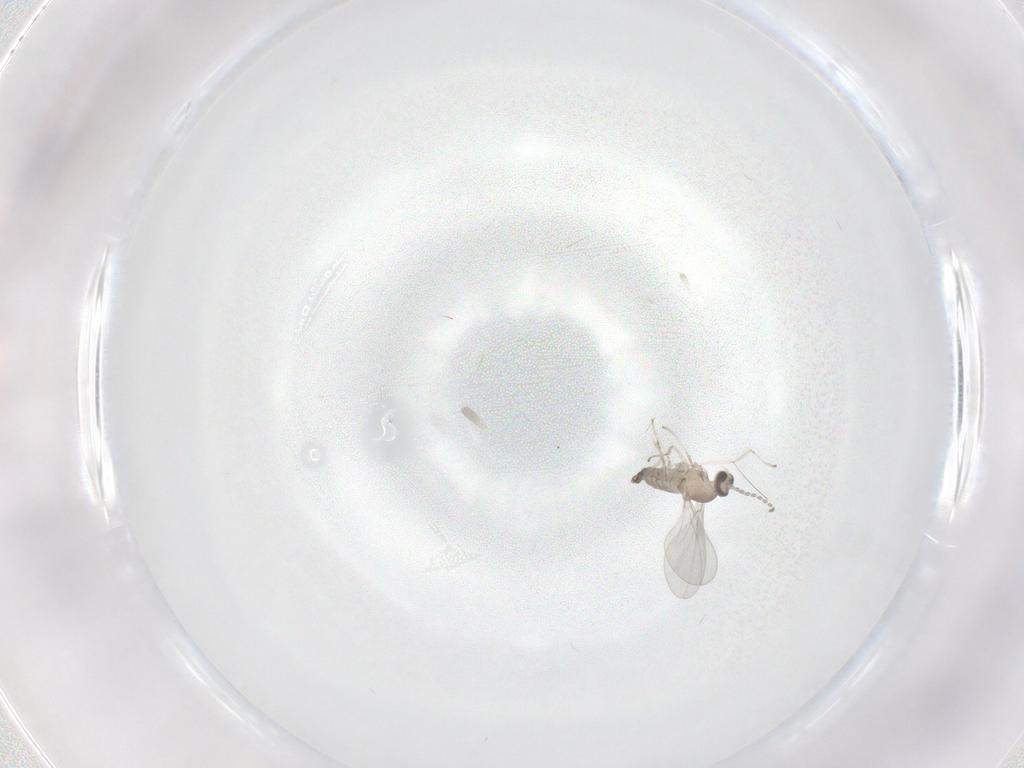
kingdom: Animalia
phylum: Arthropoda
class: Insecta
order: Diptera
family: Cecidomyiidae
